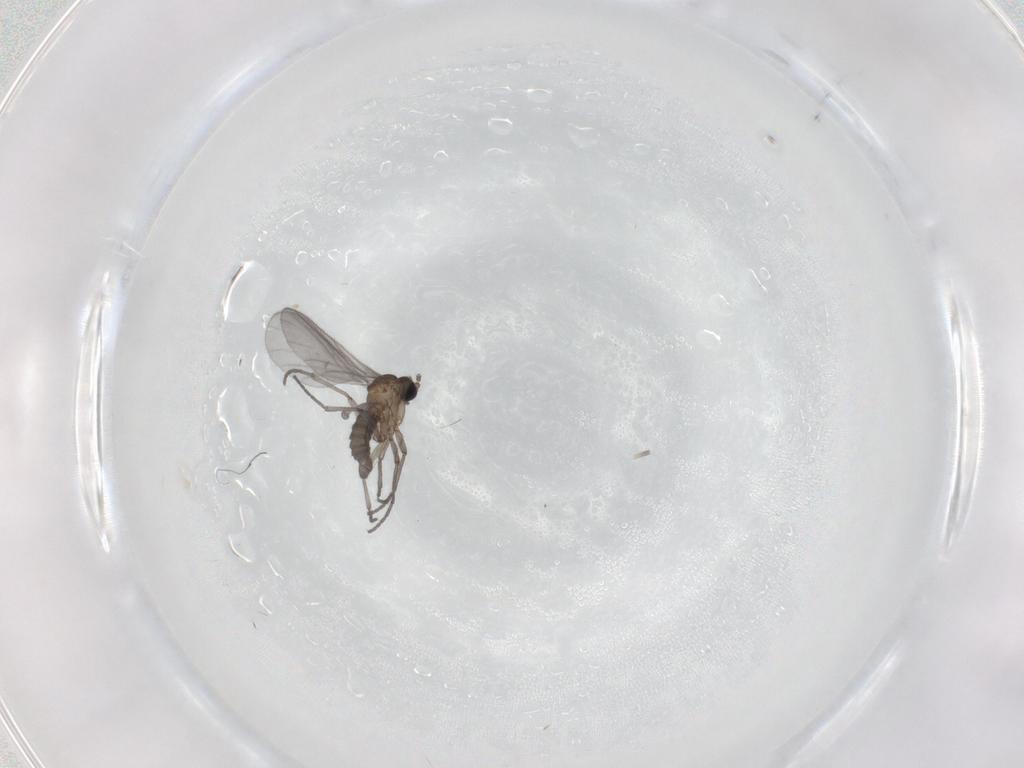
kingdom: Animalia
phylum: Arthropoda
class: Insecta
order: Diptera
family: Sciaridae
